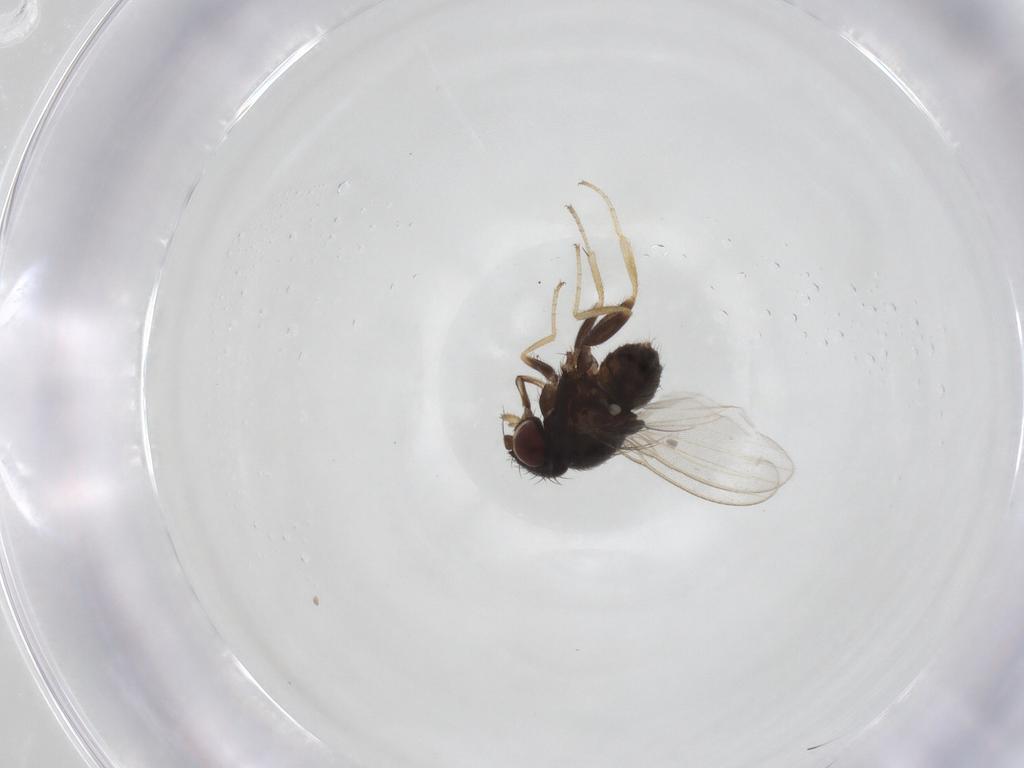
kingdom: Animalia
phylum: Arthropoda
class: Insecta
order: Diptera
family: Milichiidae
